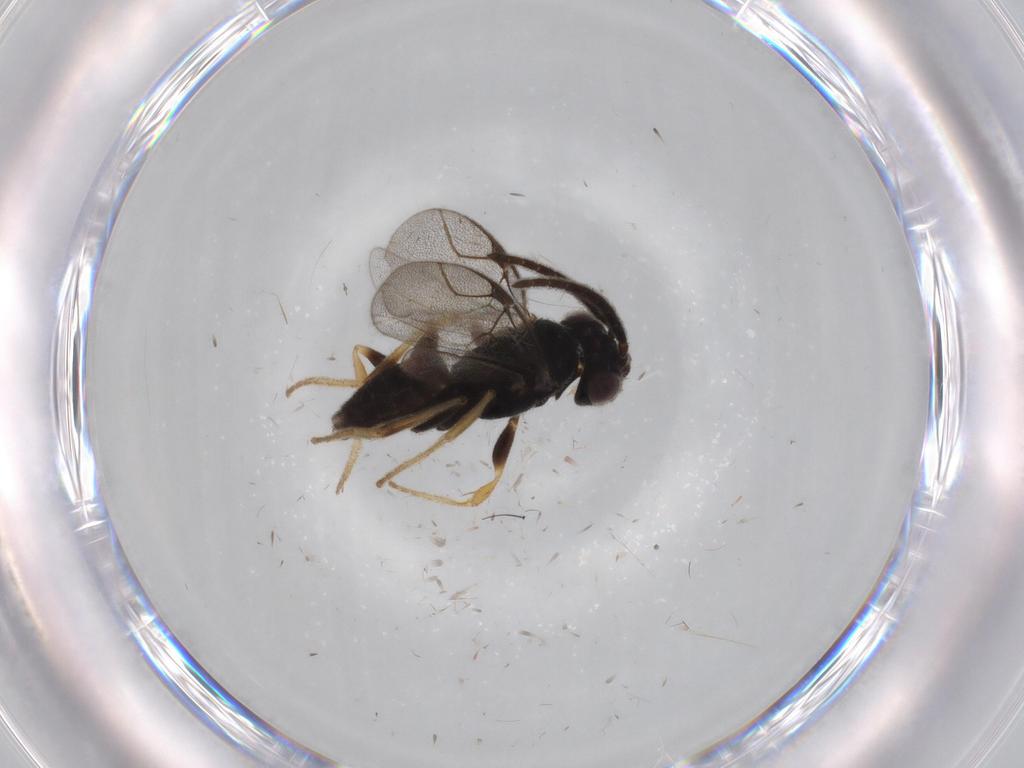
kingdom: Animalia
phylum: Arthropoda
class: Insecta
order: Hymenoptera
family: Dryinidae
